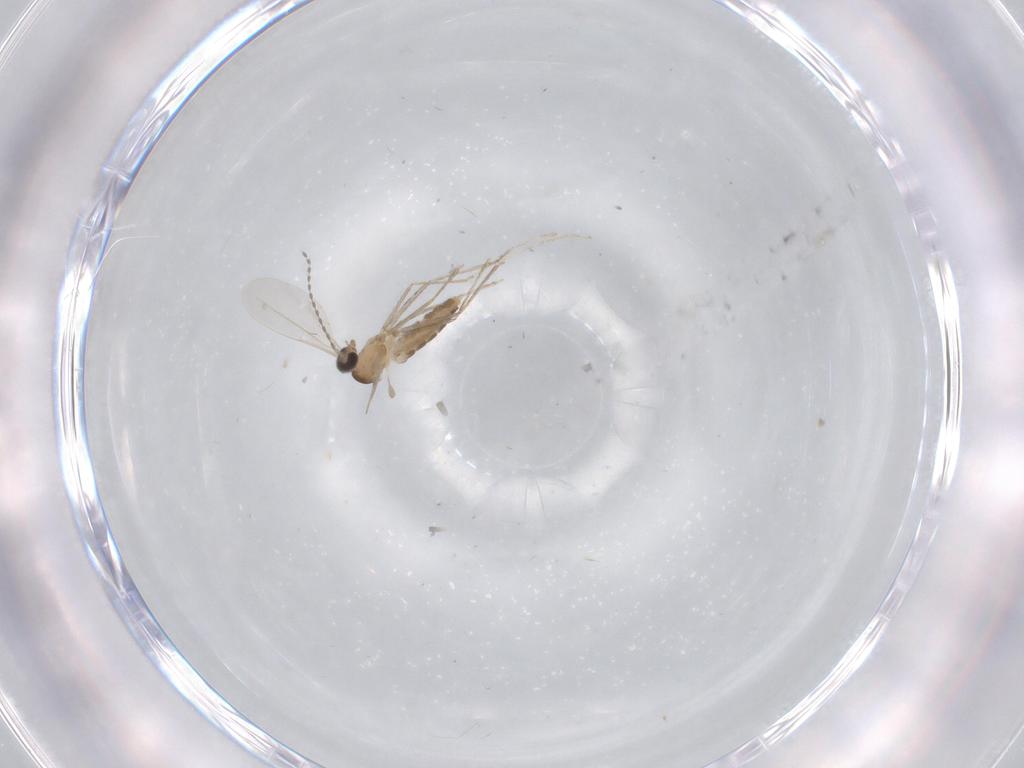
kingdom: Animalia
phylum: Arthropoda
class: Insecta
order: Diptera
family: Cecidomyiidae
